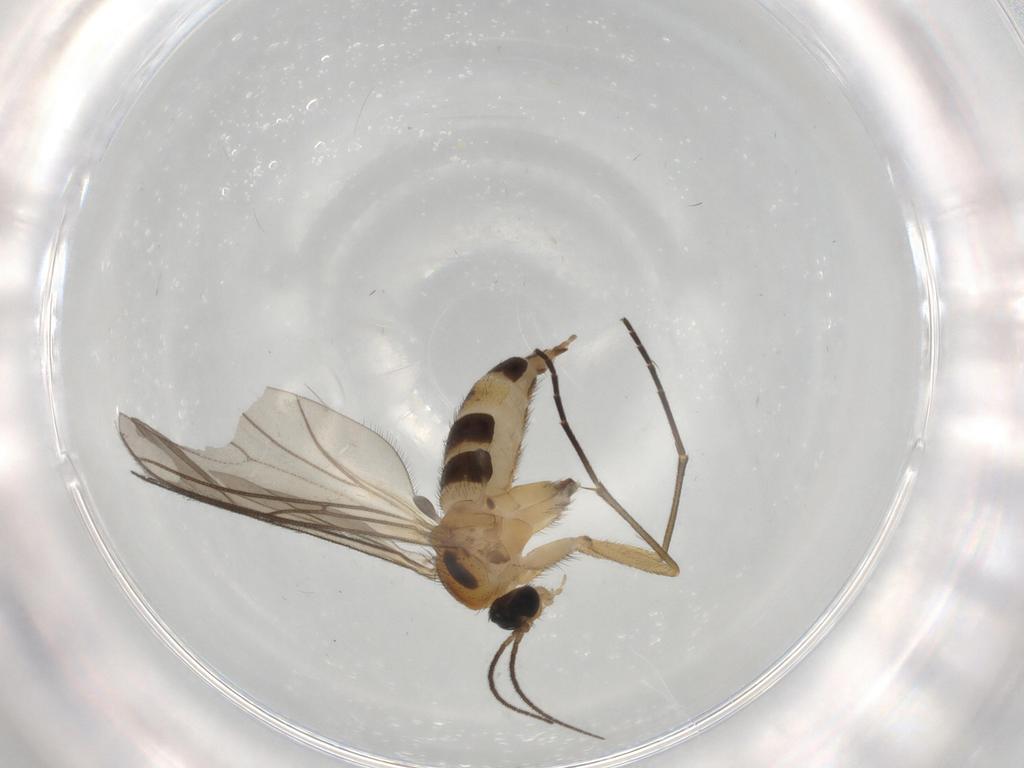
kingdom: Animalia
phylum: Arthropoda
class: Insecta
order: Diptera
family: Sciaridae
